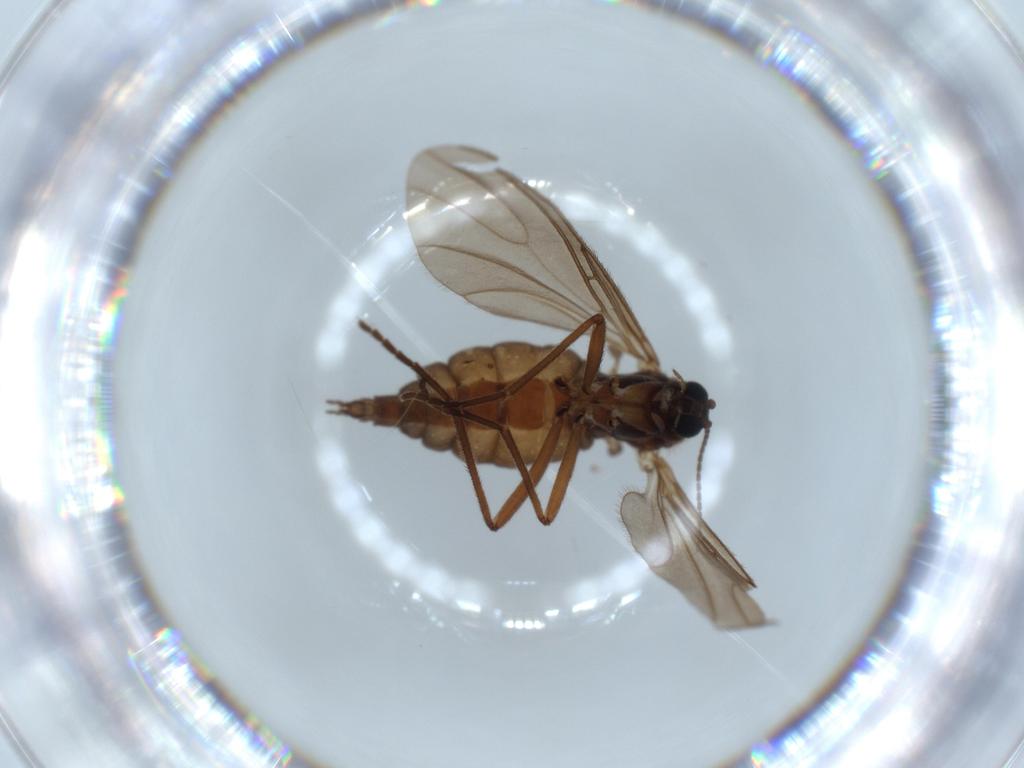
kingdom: Animalia
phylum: Arthropoda
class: Insecta
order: Diptera
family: Sciaridae
